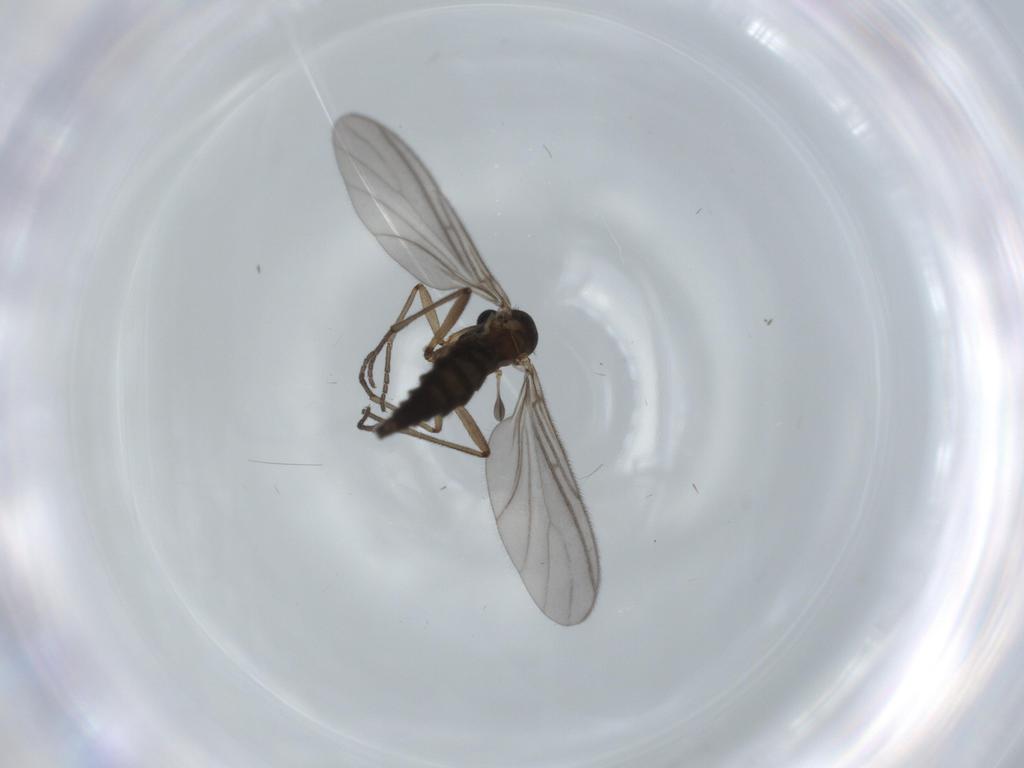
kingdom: Animalia
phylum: Arthropoda
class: Insecta
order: Diptera
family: Sciaridae
